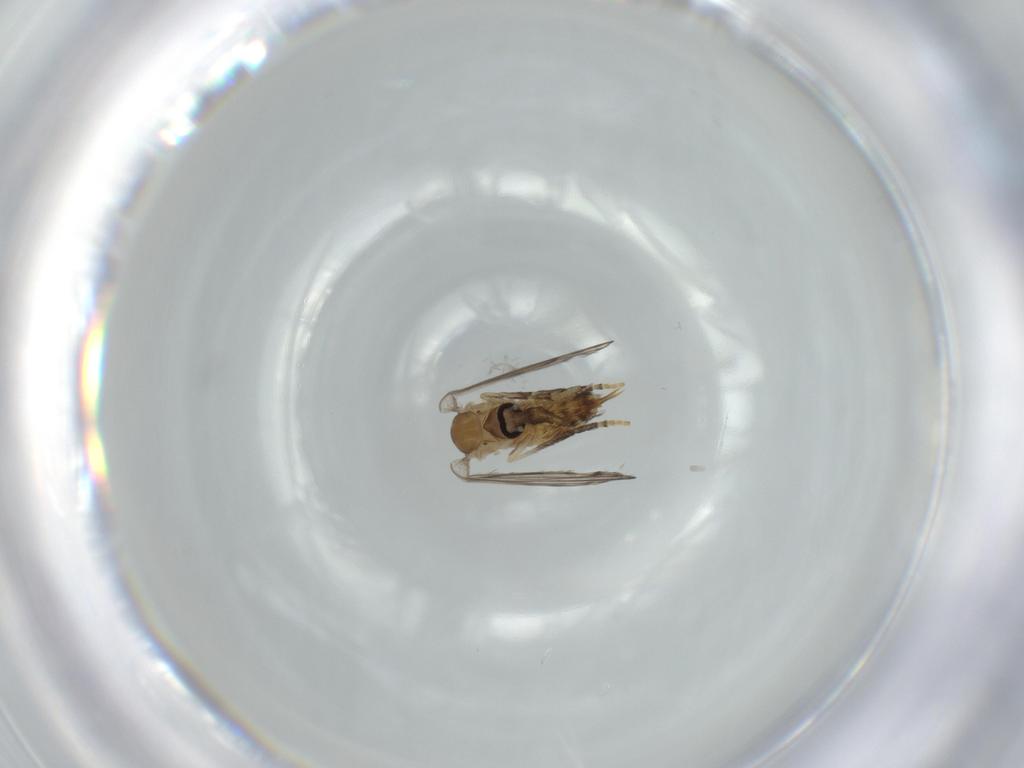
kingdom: Animalia
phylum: Arthropoda
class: Insecta
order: Diptera
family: Psychodidae
